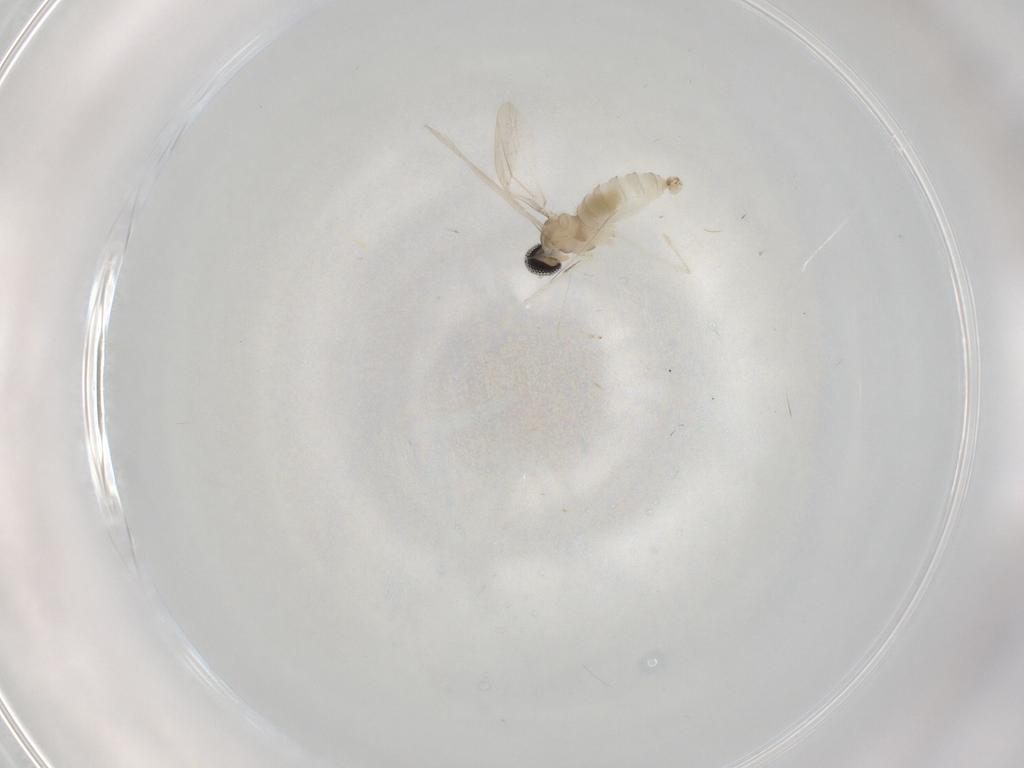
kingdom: Animalia
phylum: Arthropoda
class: Insecta
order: Diptera
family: Cecidomyiidae
